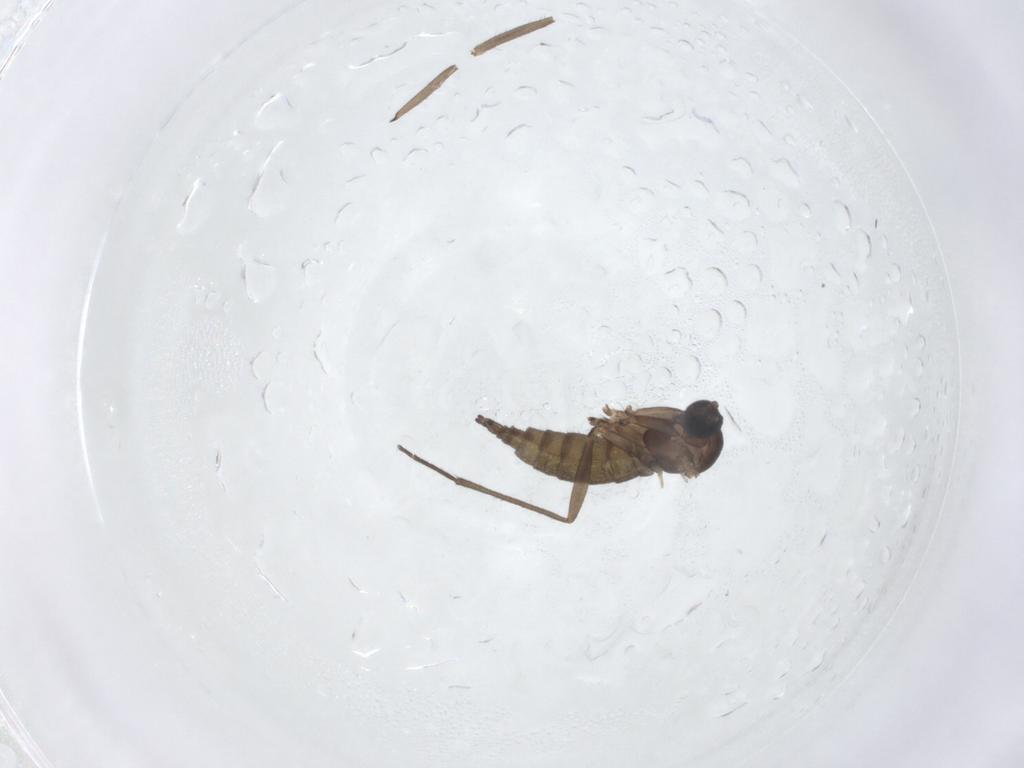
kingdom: Animalia
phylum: Arthropoda
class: Insecta
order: Diptera
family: Sciaridae
